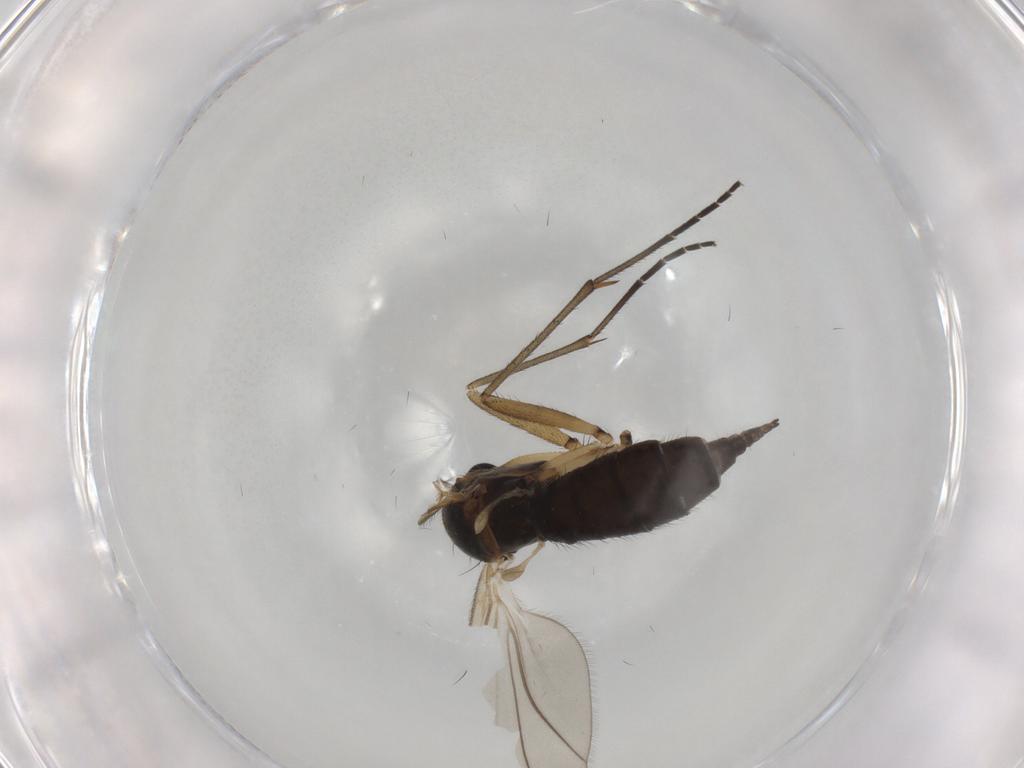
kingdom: Animalia
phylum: Arthropoda
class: Insecta
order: Diptera
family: Sciaridae
